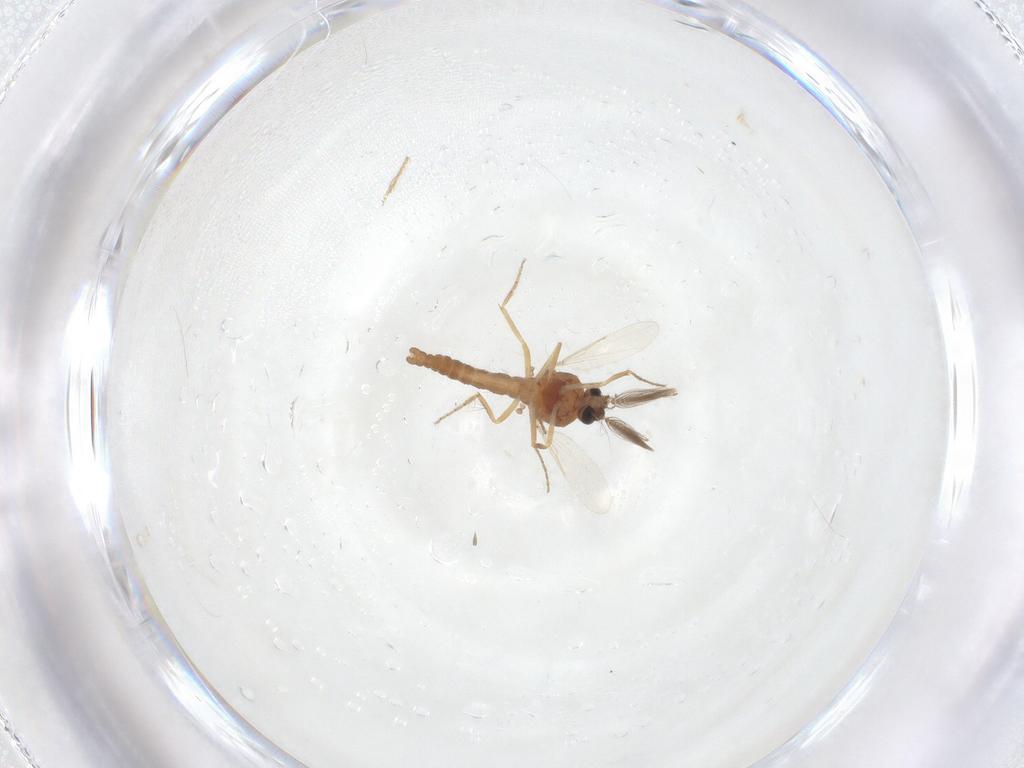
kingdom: Animalia
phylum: Arthropoda
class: Insecta
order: Diptera
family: Ceratopogonidae
